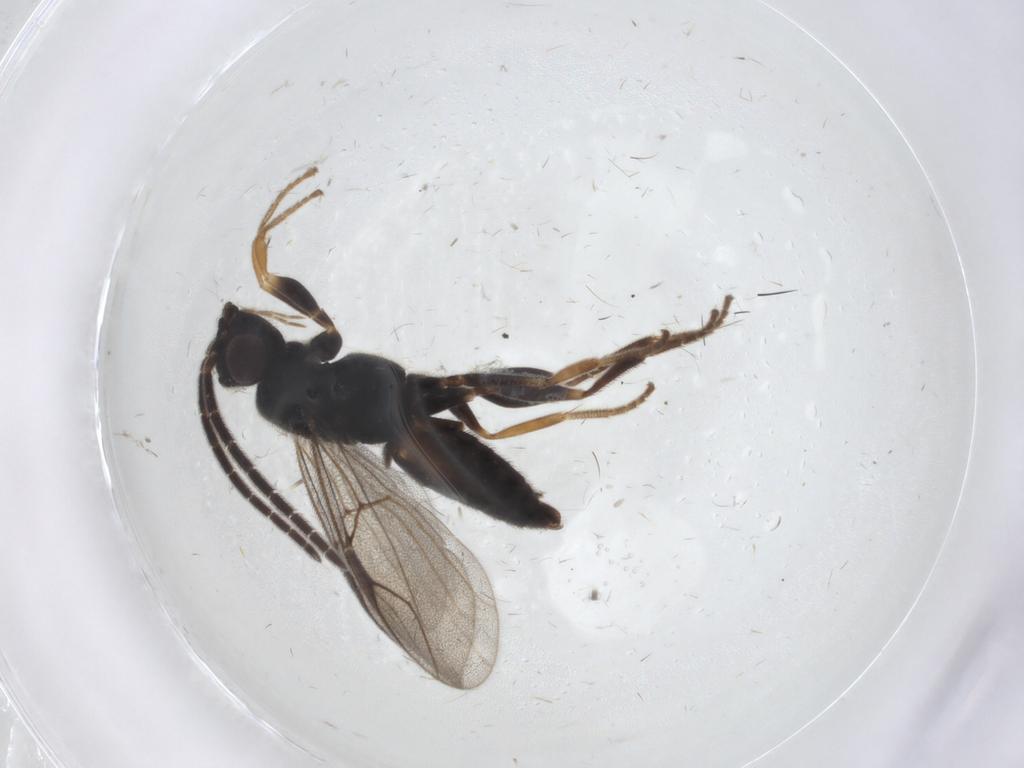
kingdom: Animalia
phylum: Arthropoda
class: Insecta
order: Hymenoptera
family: Dryinidae
